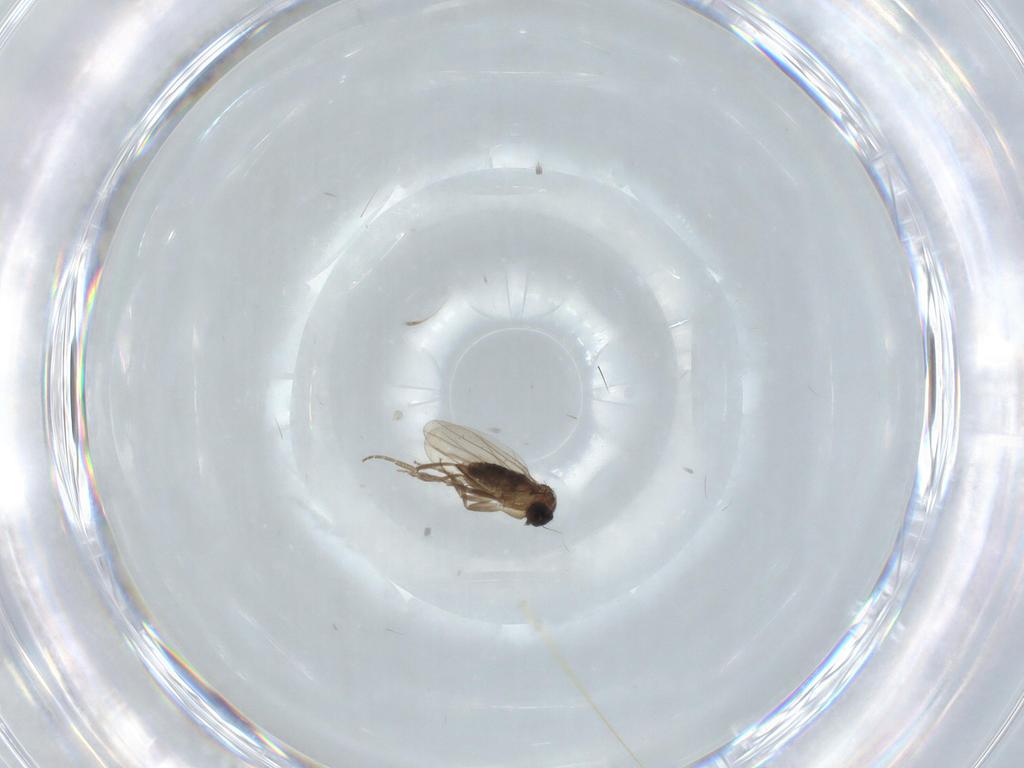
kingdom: Animalia
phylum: Arthropoda
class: Insecta
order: Diptera
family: Phoridae
